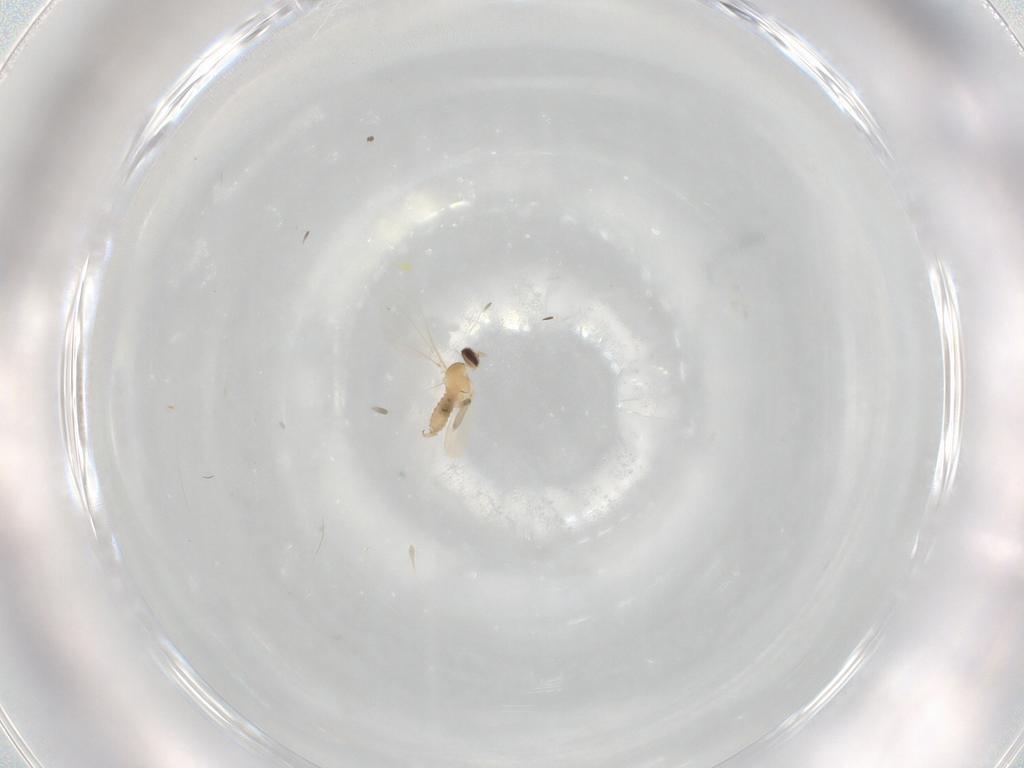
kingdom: Animalia
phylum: Arthropoda
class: Insecta
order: Diptera
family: Cecidomyiidae
